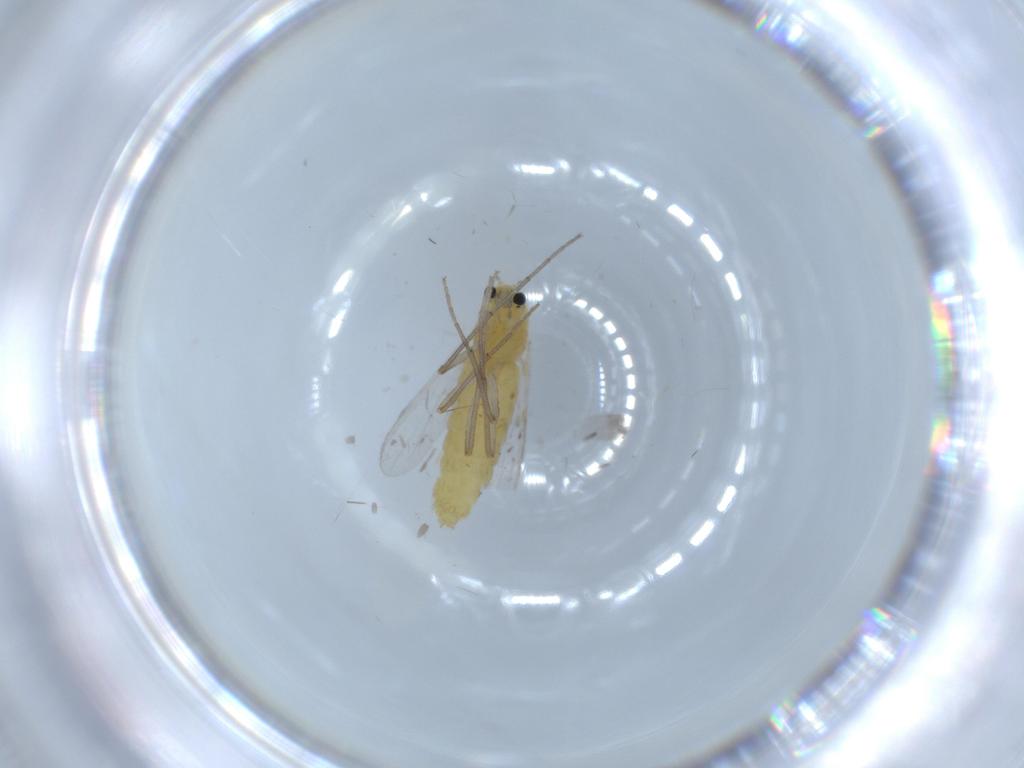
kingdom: Animalia
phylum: Arthropoda
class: Insecta
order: Diptera
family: Chironomidae
